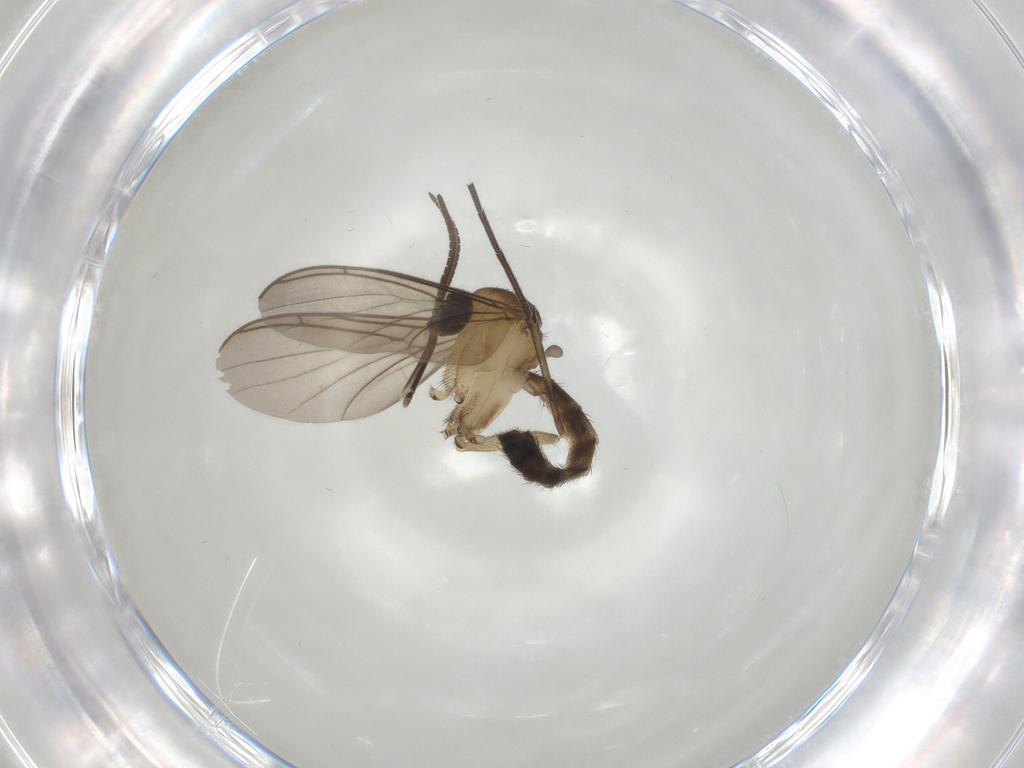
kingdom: Animalia
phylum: Arthropoda
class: Insecta
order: Diptera
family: Keroplatidae
